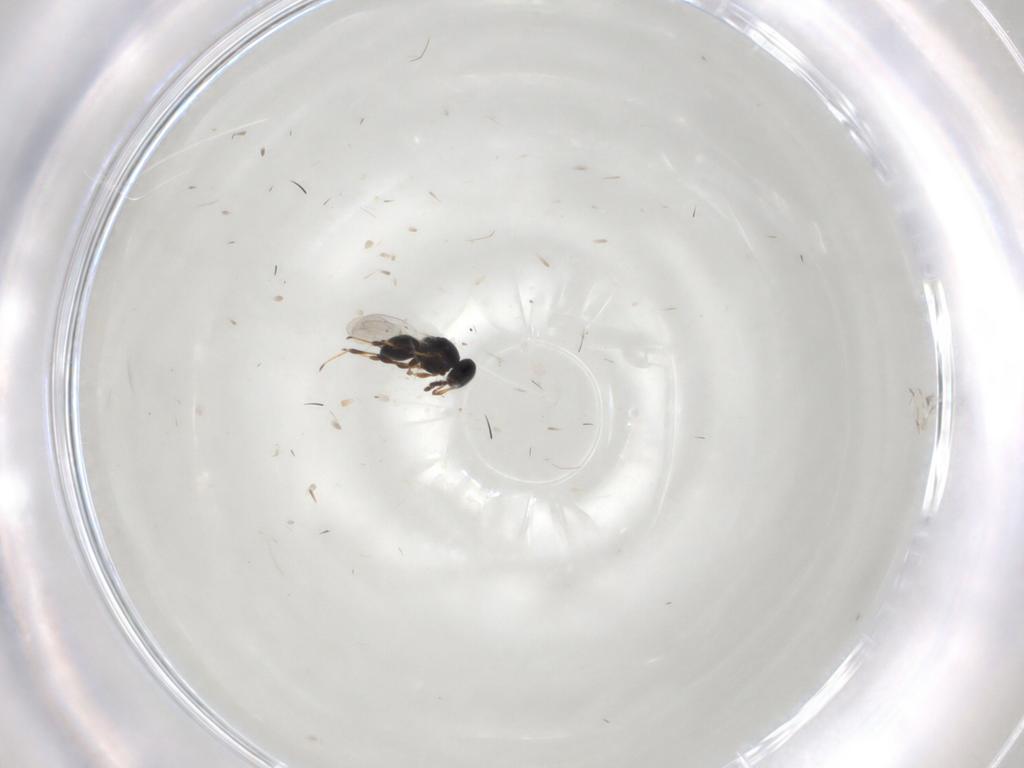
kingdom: Animalia
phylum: Arthropoda
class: Insecta
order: Hymenoptera
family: Platygastridae
